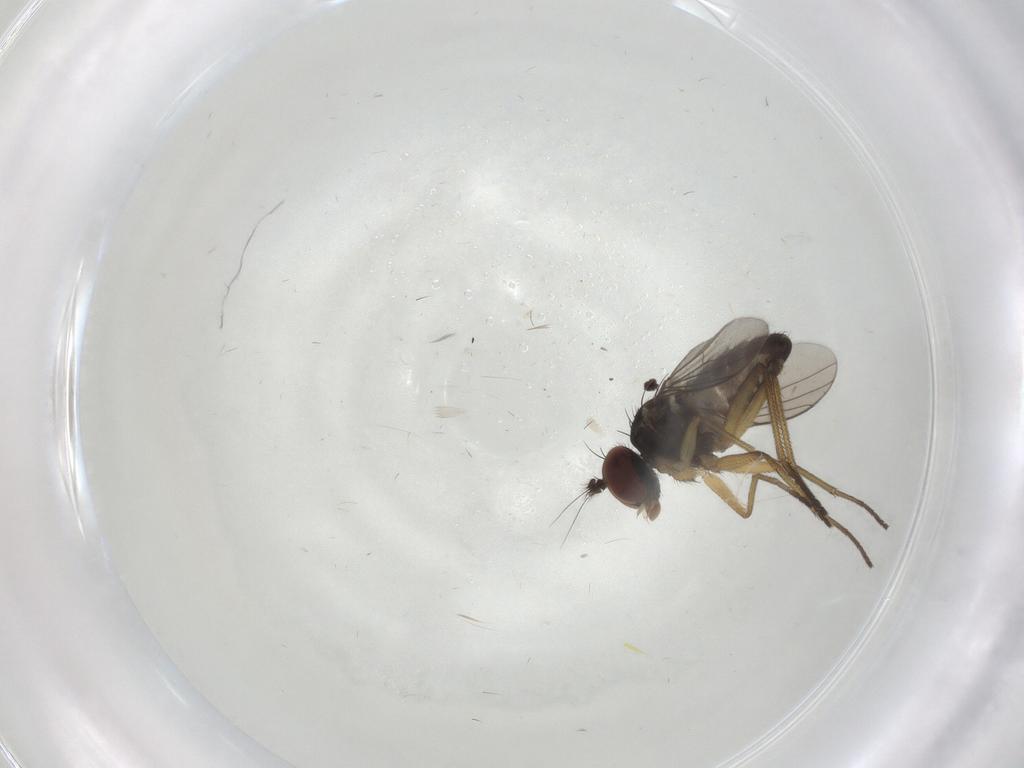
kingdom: Animalia
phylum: Arthropoda
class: Insecta
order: Diptera
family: Dolichopodidae
